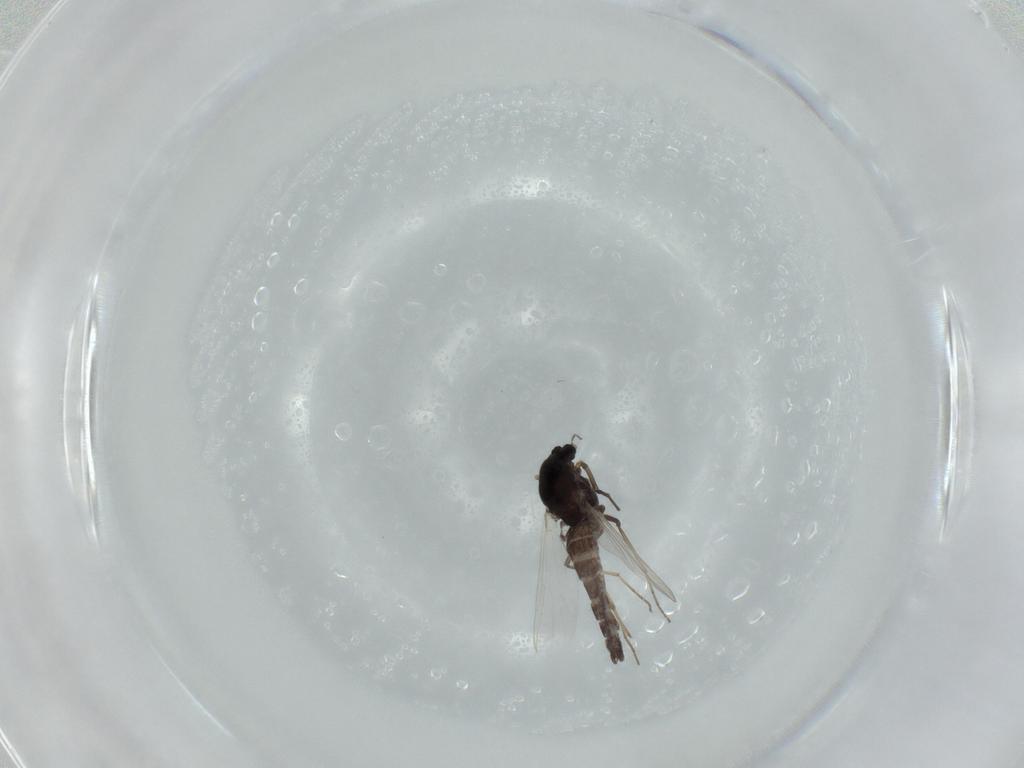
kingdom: Animalia
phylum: Arthropoda
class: Insecta
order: Diptera
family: Chironomidae
